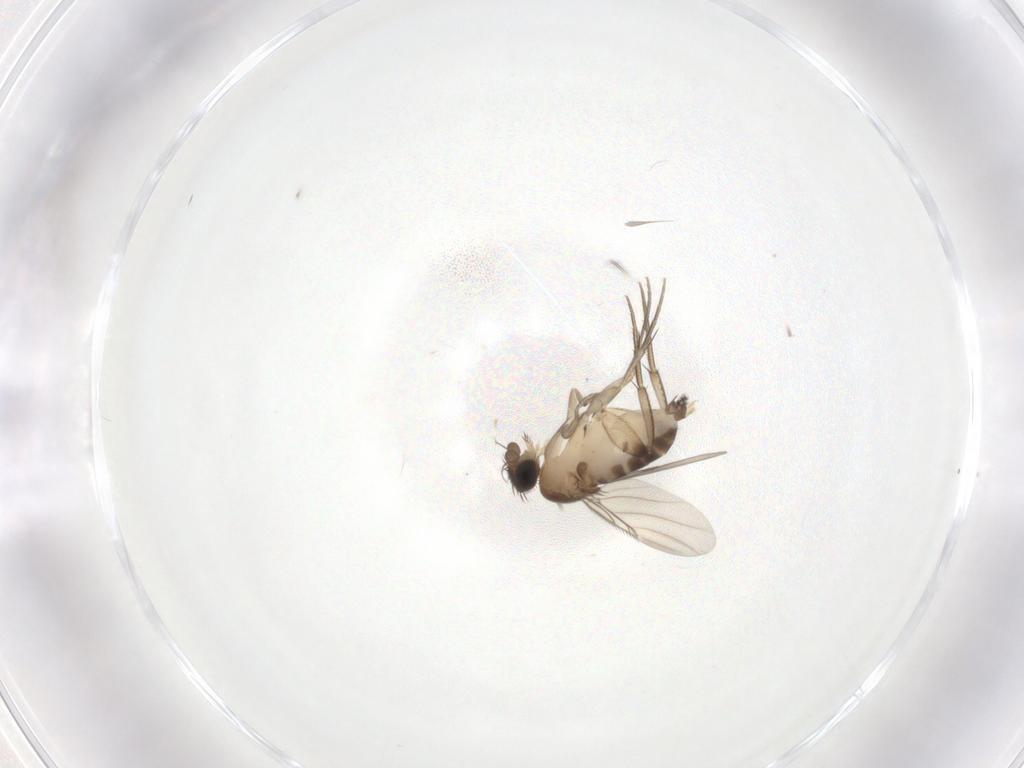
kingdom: Animalia
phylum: Arthropoda
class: Insecta
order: Diptera
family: Phoridae
